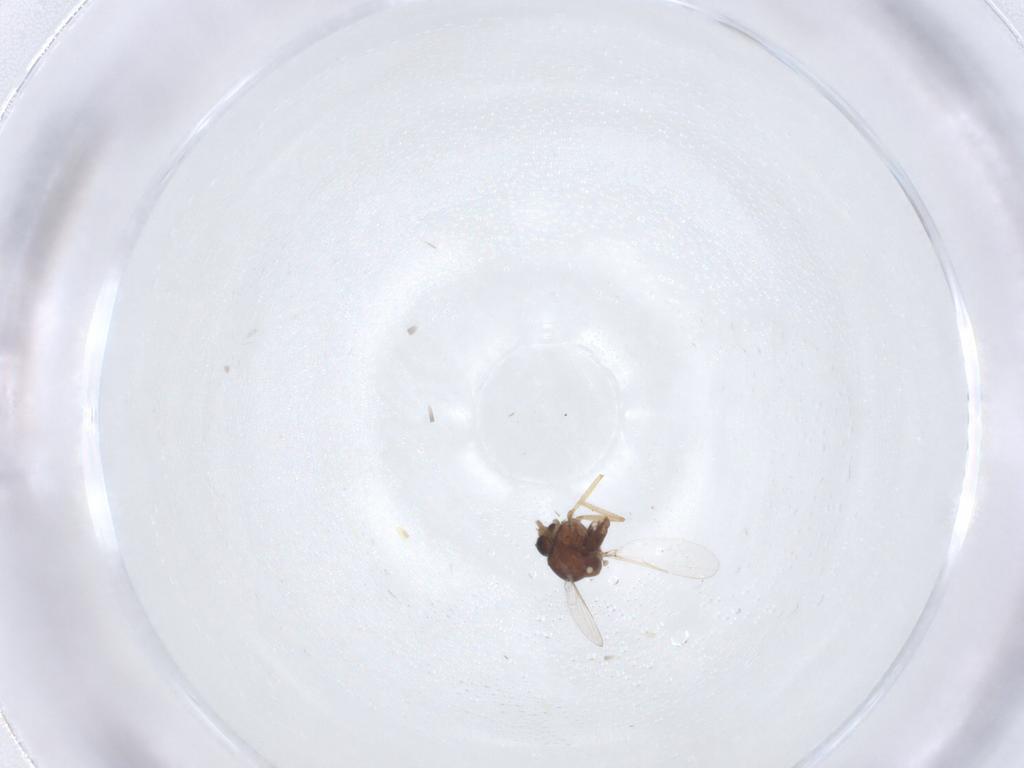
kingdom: Animalia
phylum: Arthropoda
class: Insecta
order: Diptera
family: Ceratopogonidae
